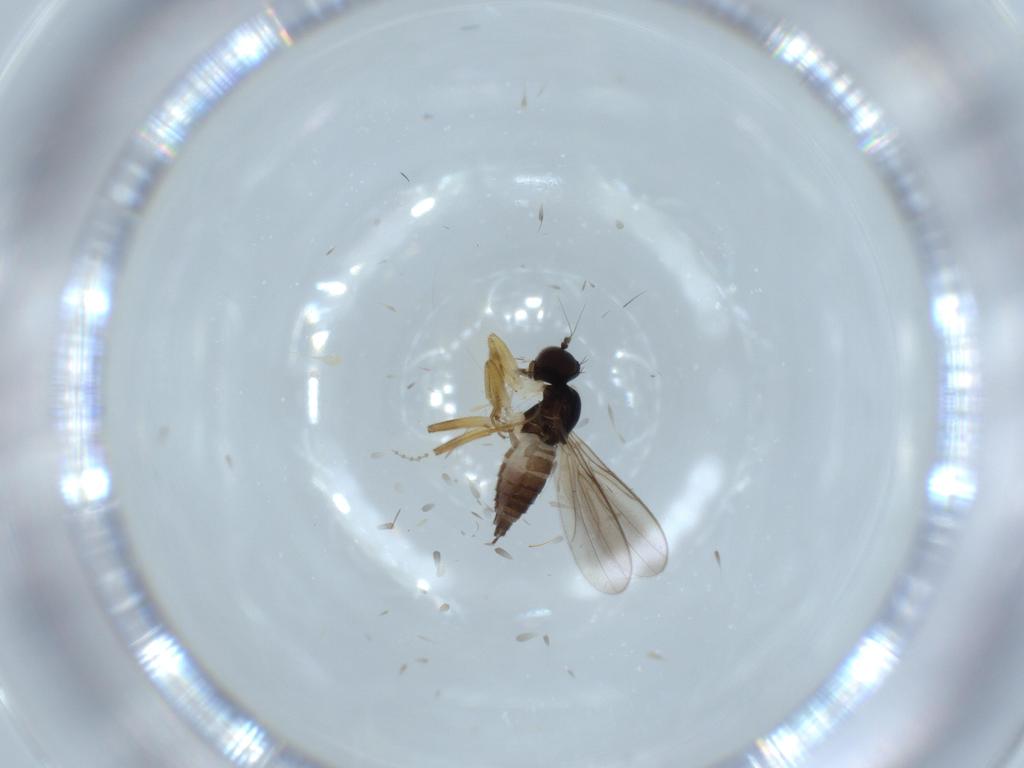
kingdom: Animalia
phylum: Arthropoda
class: Insecta
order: Diptera
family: Hybotidae
